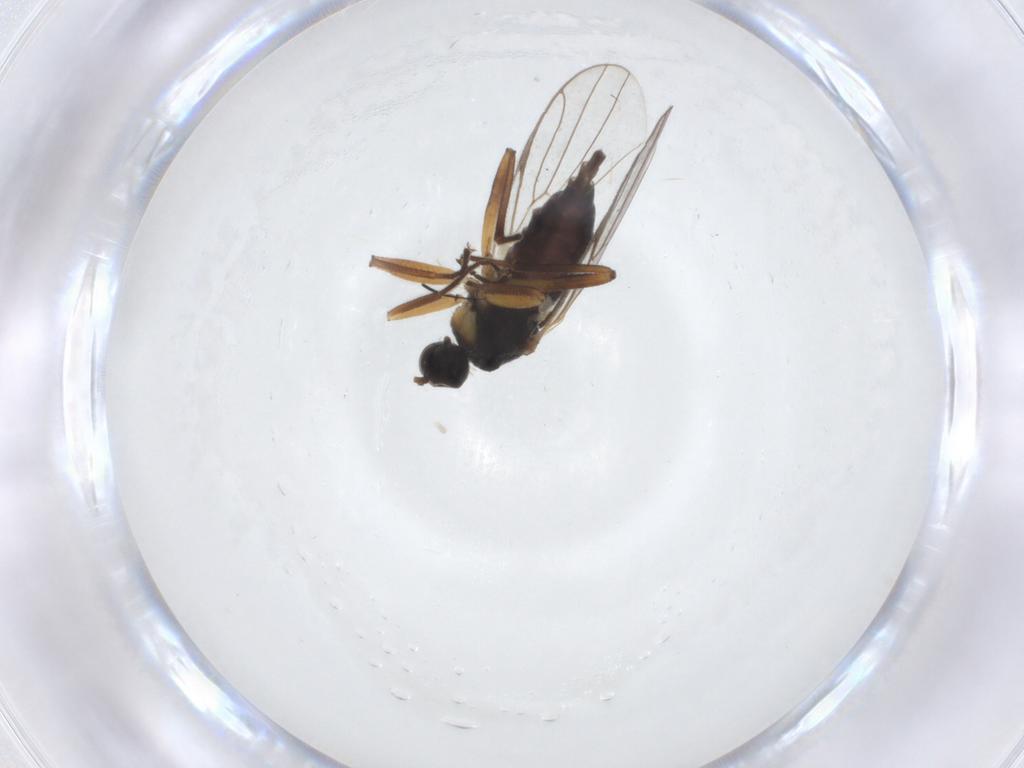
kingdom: Animalia
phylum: Arthropoda
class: Insecta
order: Diptera
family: Hybotidae
